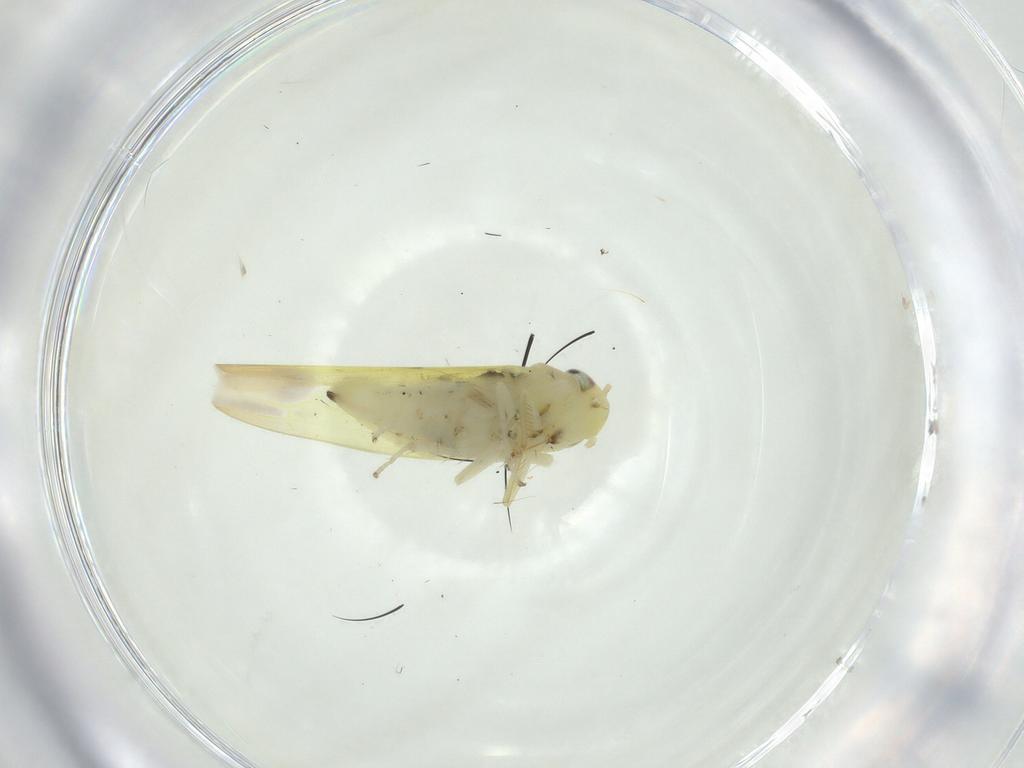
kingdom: Animalia
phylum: Arthropoda
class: Insecta
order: Hemiptera
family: Cicadellidae
